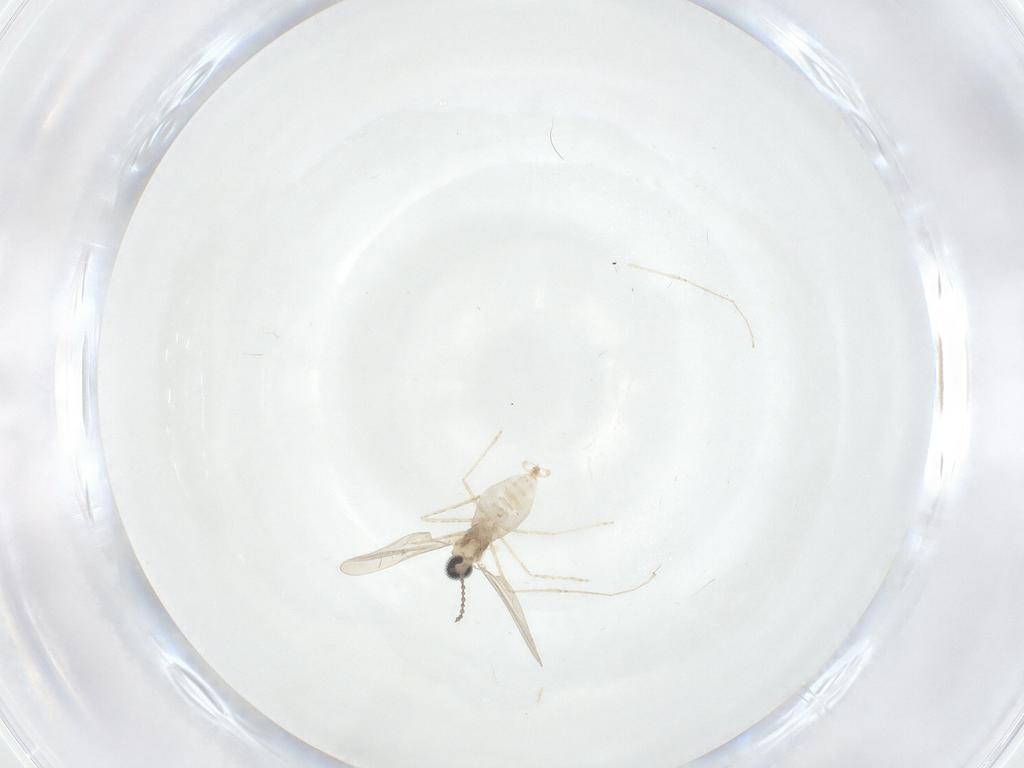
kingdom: Animalia
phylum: Arthropoda
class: Insecta
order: Diptera
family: Cecidomyiidae
